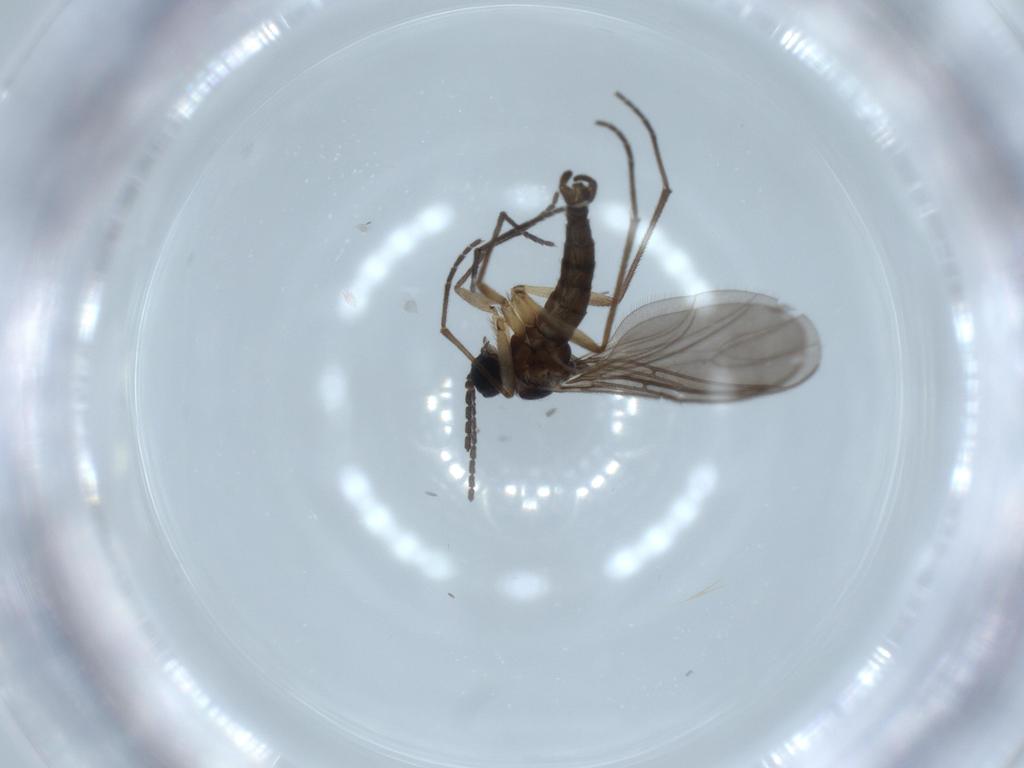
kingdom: Animalia
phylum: Arthropoda
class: Insecta
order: Diptera
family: Sciaridae
